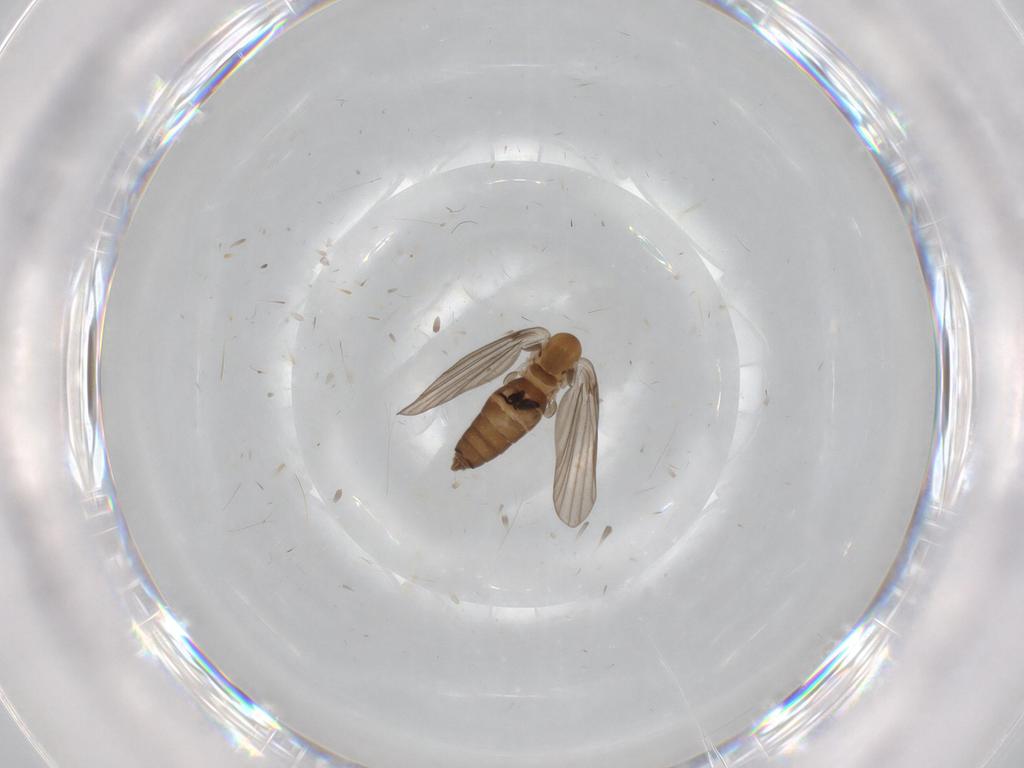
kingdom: Animalia
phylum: Arthropoda
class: Insecta
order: Diptera
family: Cecidomyiidae
